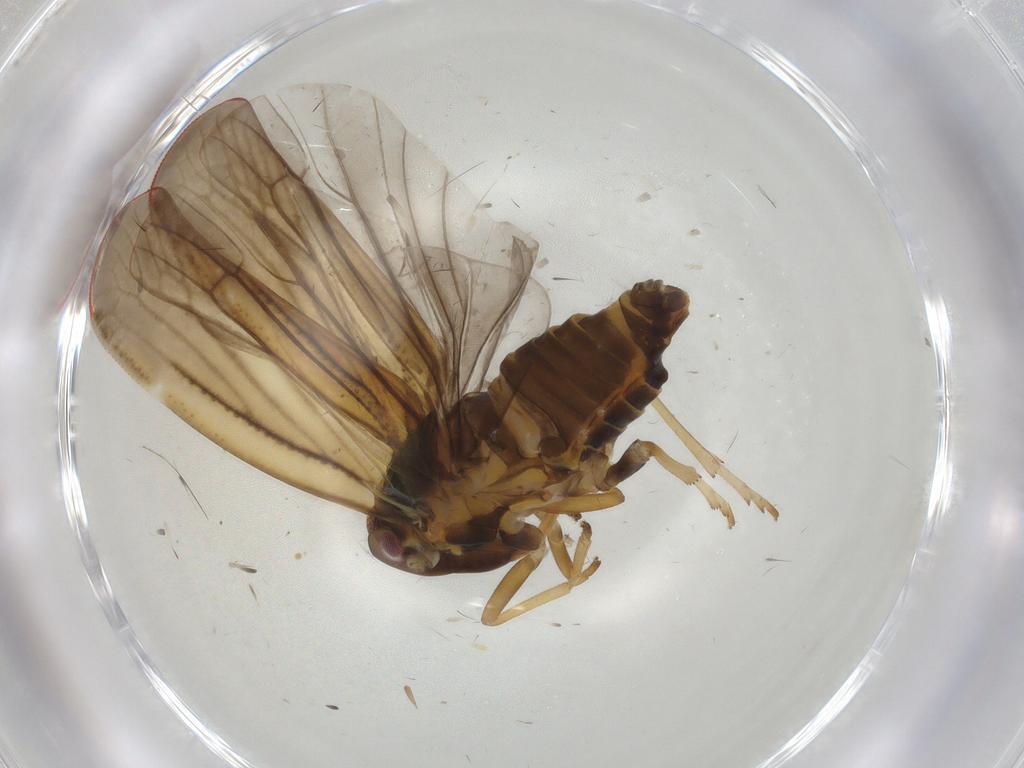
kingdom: Animalia
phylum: Arthropoda
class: Insecta
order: Hemiptera
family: Derbidae
